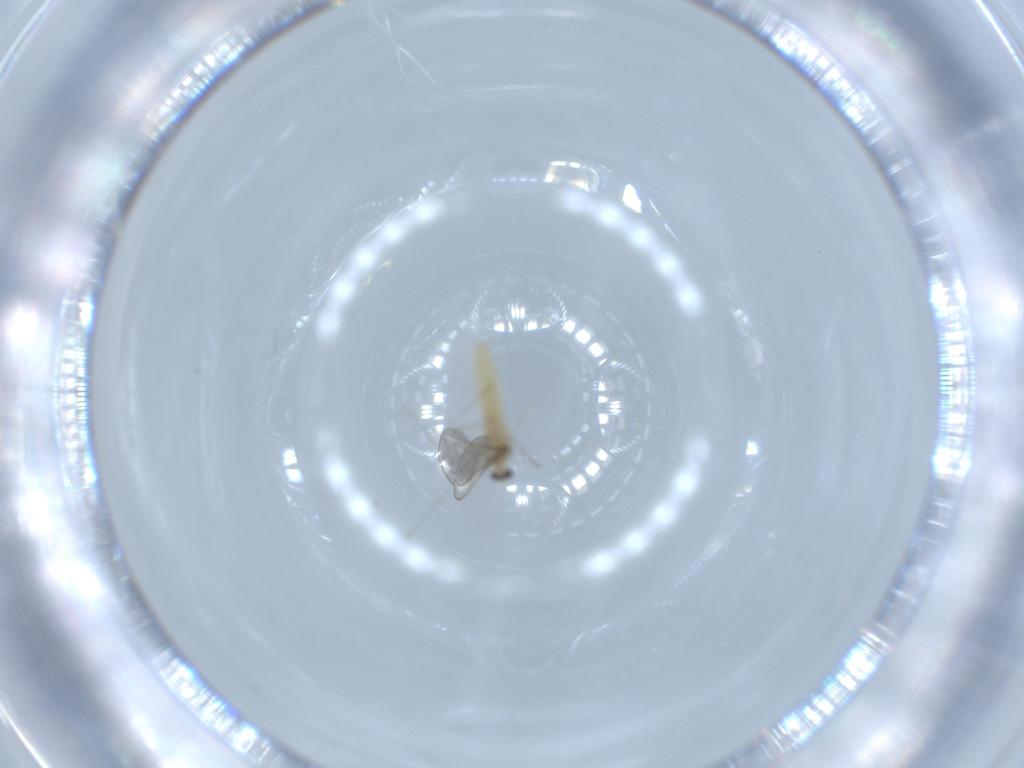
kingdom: Animalia
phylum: Arthropoda
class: Insecta
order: Diptera
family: Cecidomyiidae
